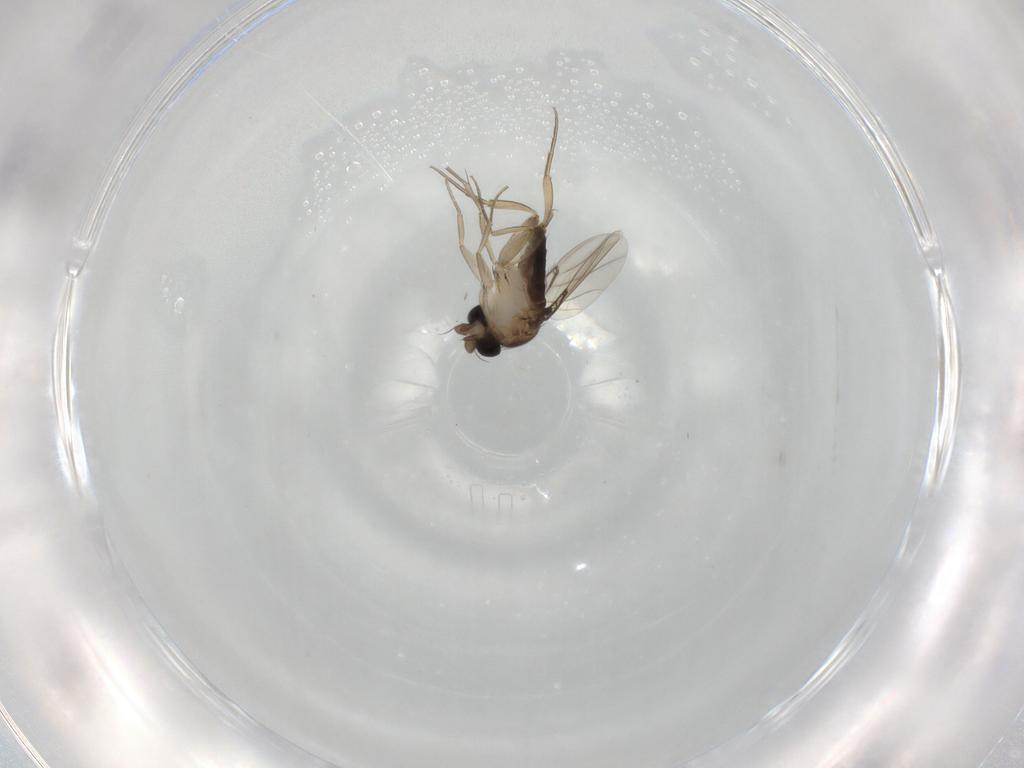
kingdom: Animalia
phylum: Arthropoda
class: Insecta
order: Diptera
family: Phoridae
